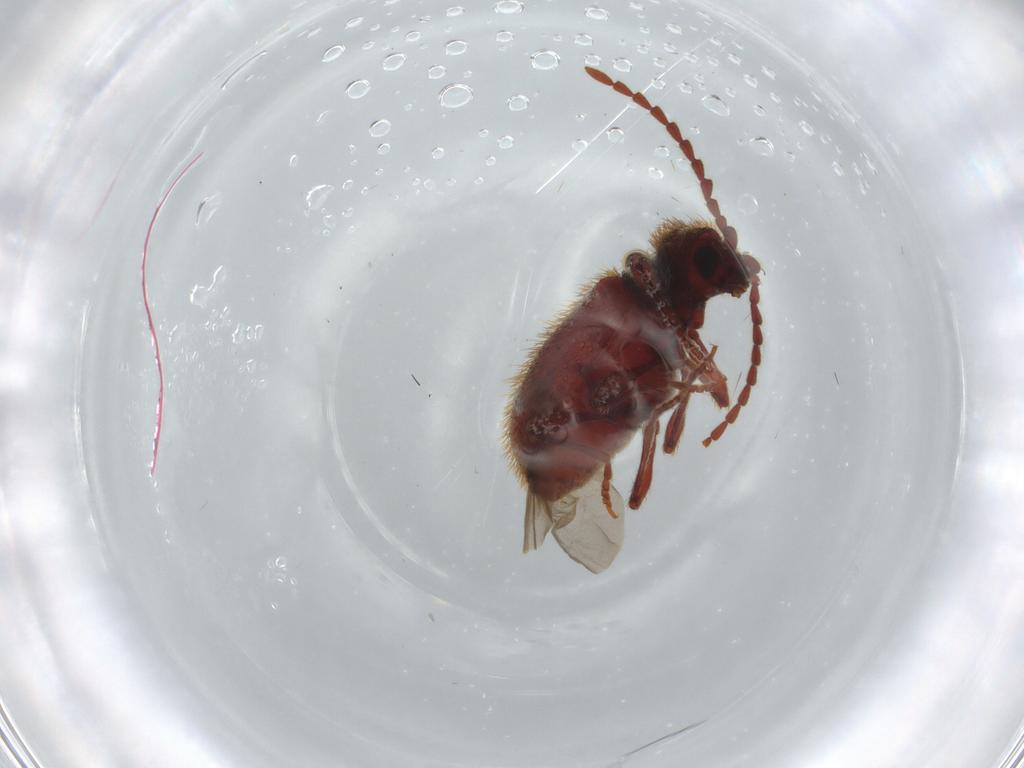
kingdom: Animalia
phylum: Arthropoda
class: Insecta
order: Coleoptera
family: Ptinidae
